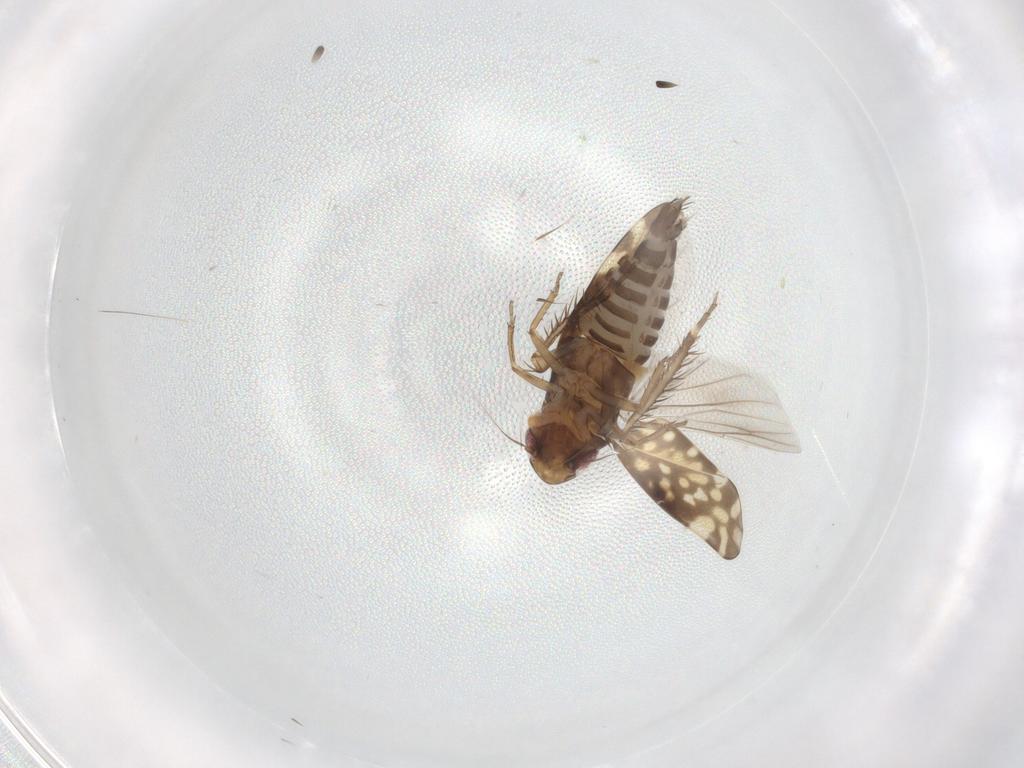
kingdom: Animalia
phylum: Arthropoda
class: Insecta
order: Hemiptera
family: Cicadellidae
